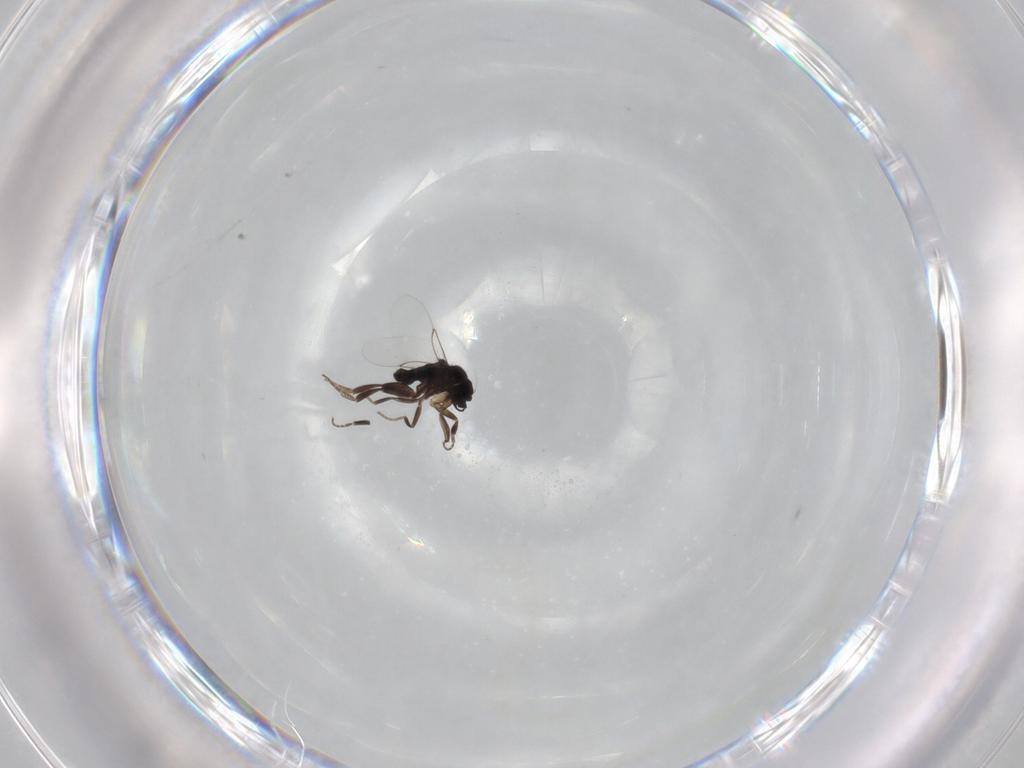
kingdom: Animalia
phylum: Arthropoda
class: Insecta
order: Diptera
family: Phoridae
